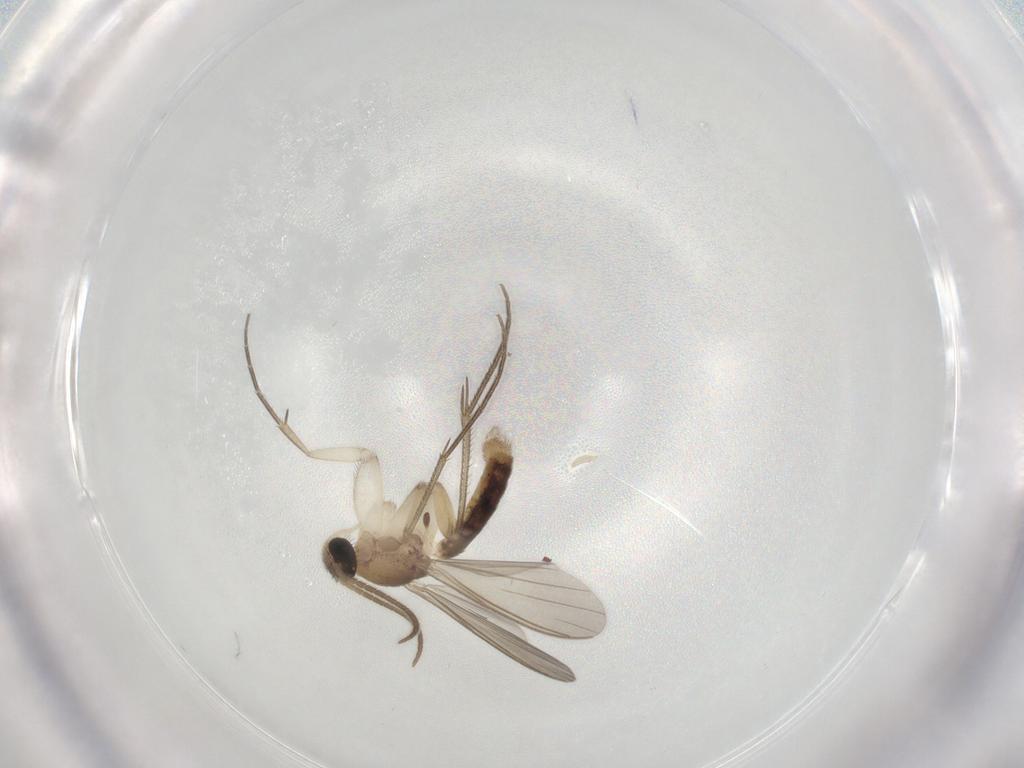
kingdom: Animalia
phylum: Arthropoda
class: Insecta
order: Diptera
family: Mycetophilidae
